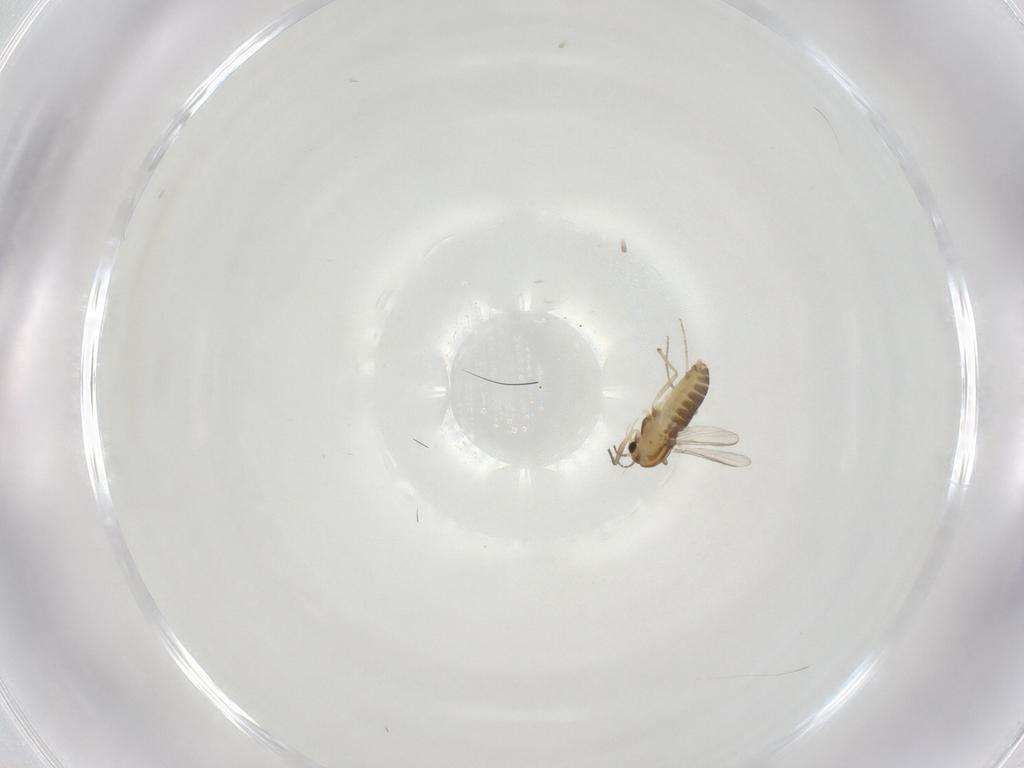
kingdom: Animalia
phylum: Arthropoda
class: Insecta
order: Diptera
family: Chironomidae
